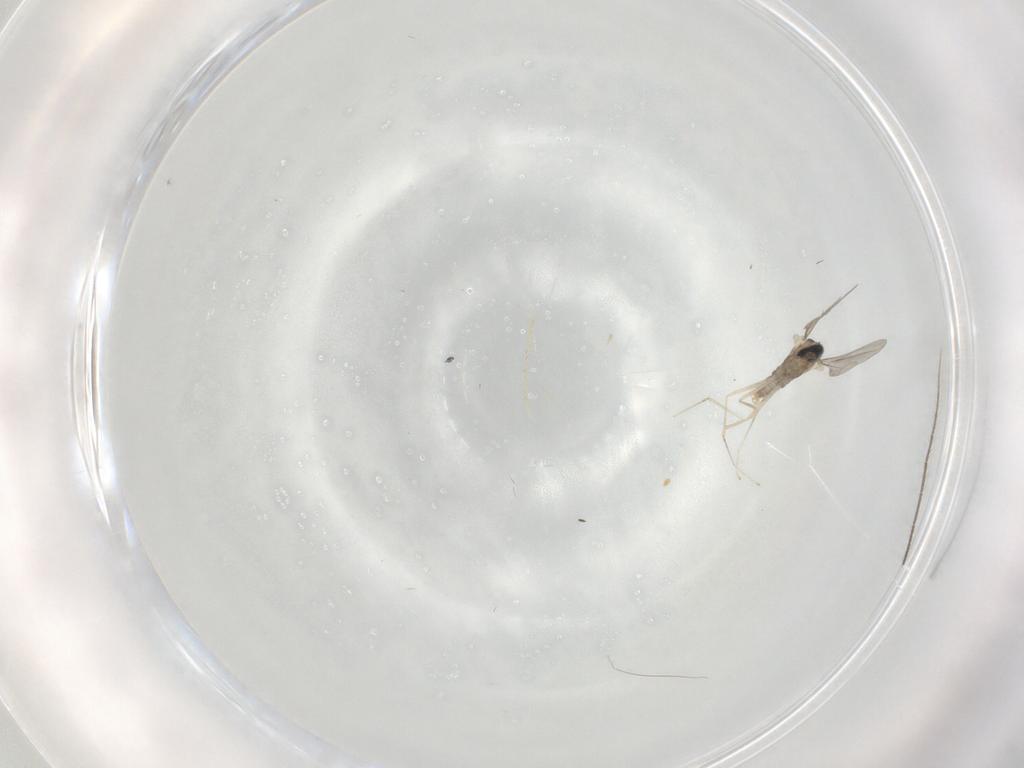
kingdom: Animalia
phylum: Arthropoda
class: Insecta
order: Diptera
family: Cecidomyiidae
